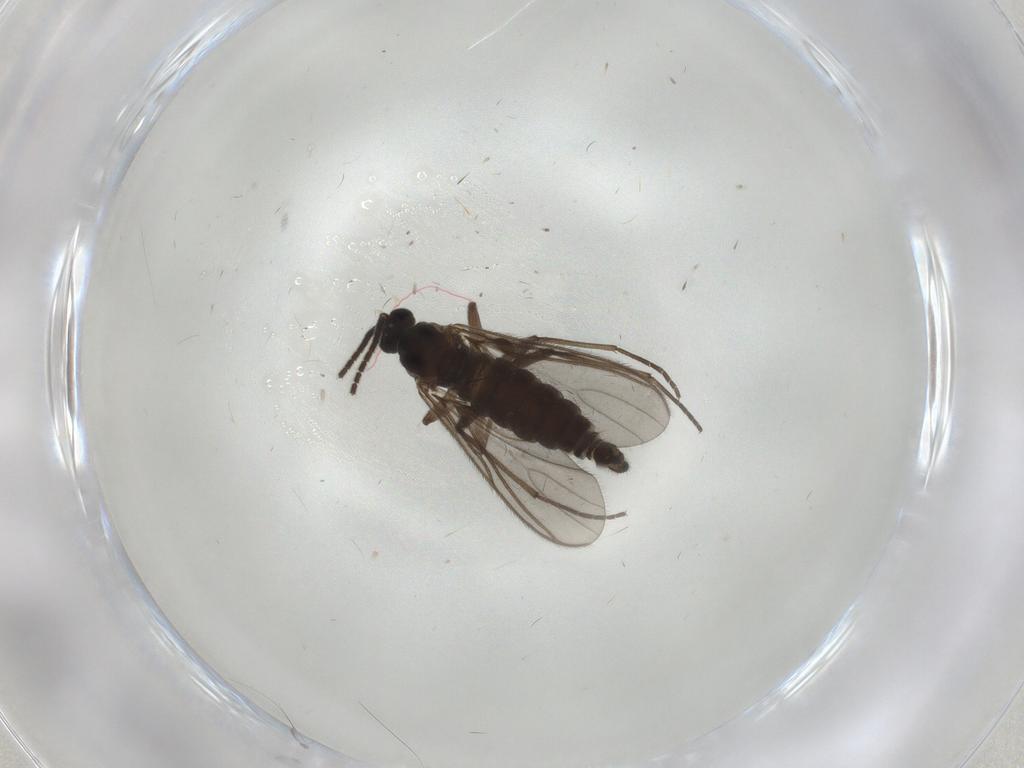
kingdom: Animalia
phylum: Arthropoda
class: Insecta
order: Diptera
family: Sciaridae
